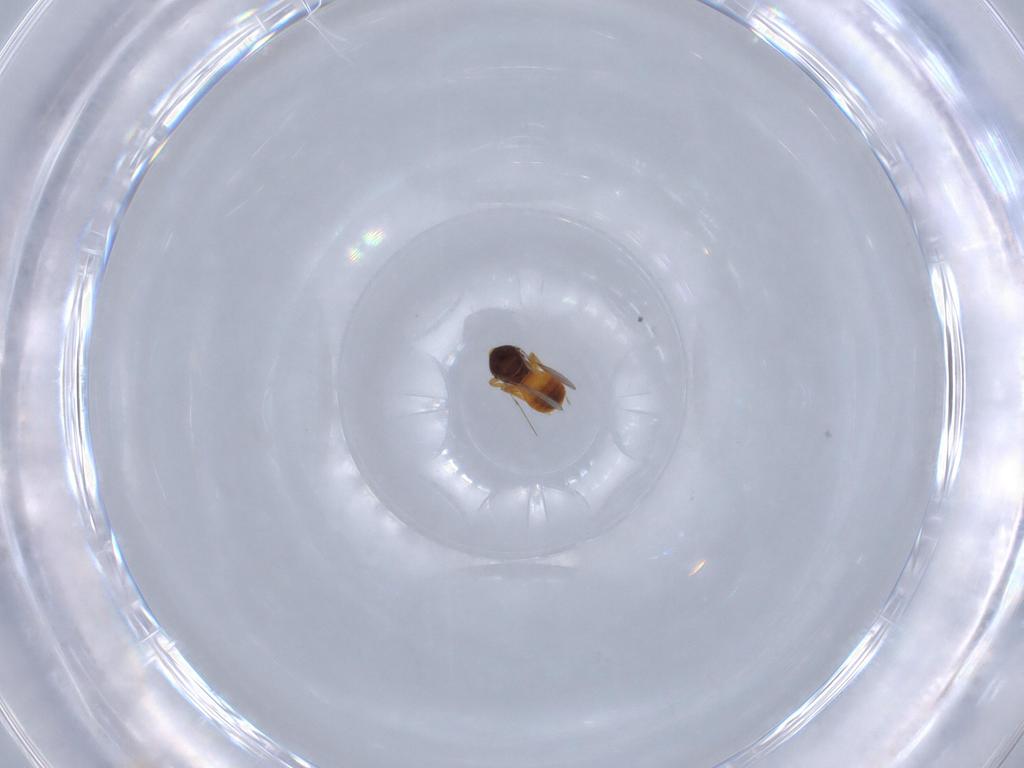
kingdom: Animalia
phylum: Arthropoda
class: Insecta
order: Hymenoptera
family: Scelionidae
